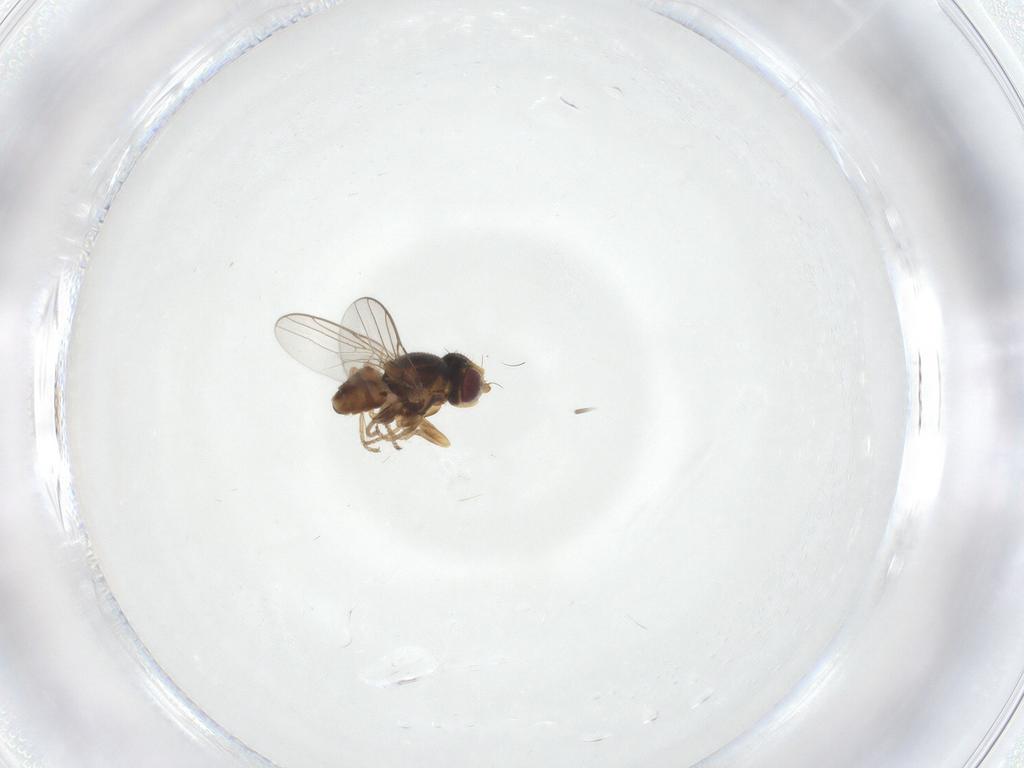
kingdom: Animalia
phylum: Arthropoda
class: Insecta
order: Diptera
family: Chloropidae
